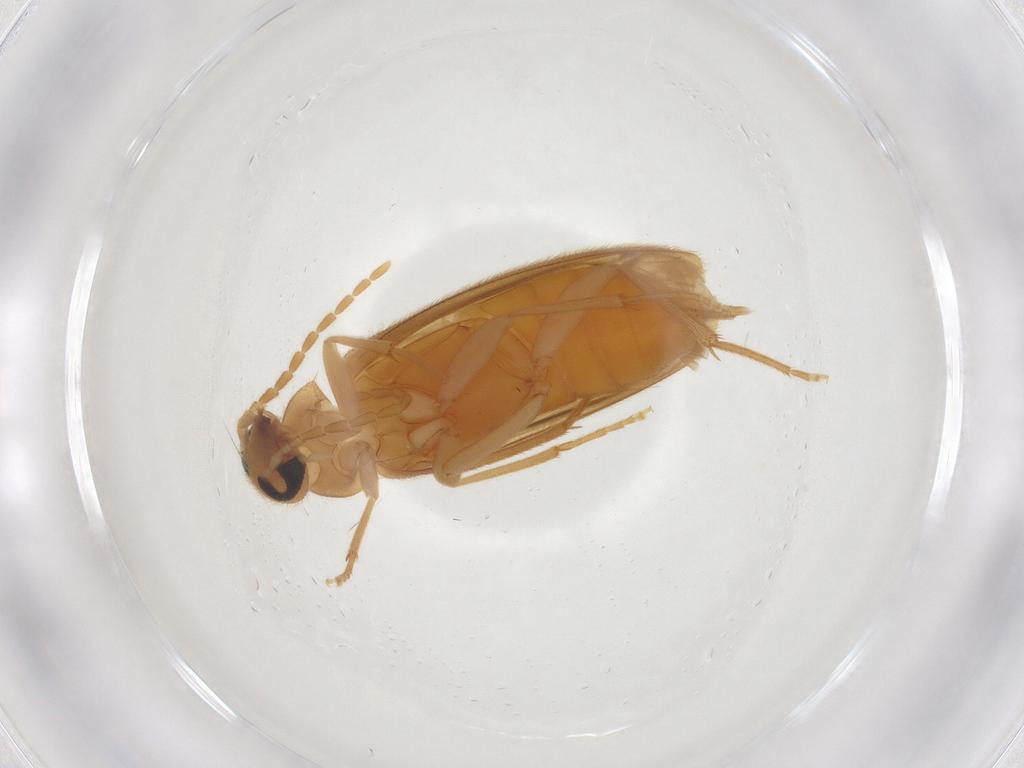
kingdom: Animalia
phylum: Arthropoda
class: Insecta
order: Coleoptera
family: Scraptiidae
